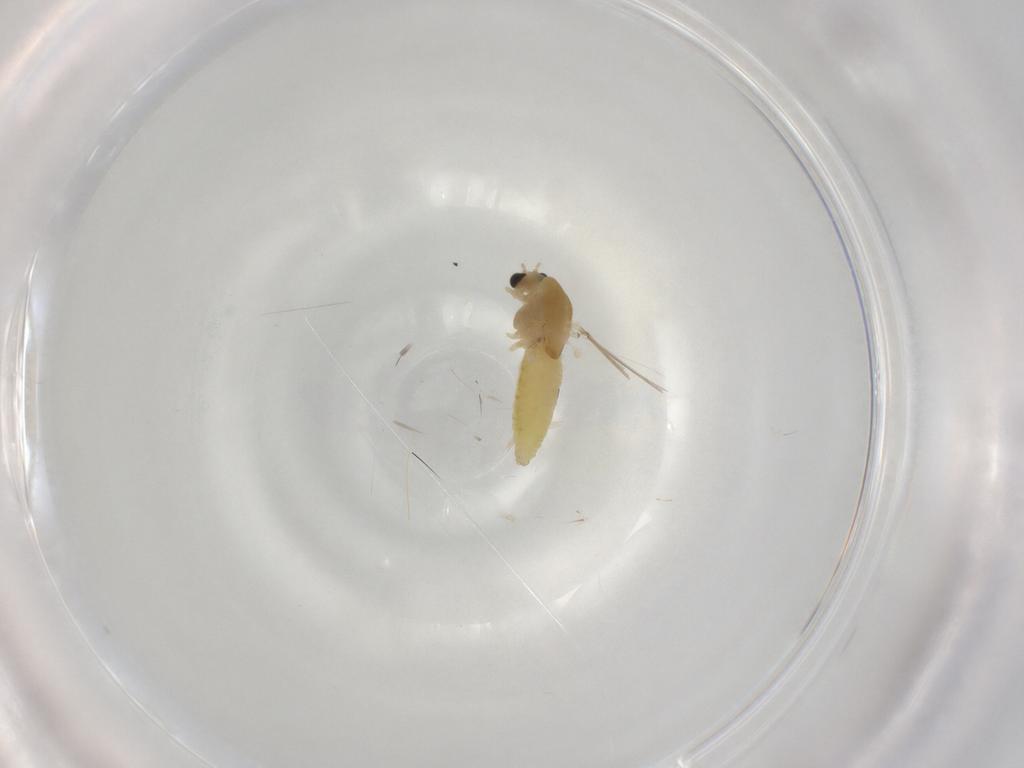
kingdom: Animalia
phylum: Arthropoda
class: Insecta
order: Diptera
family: Chironomidae
